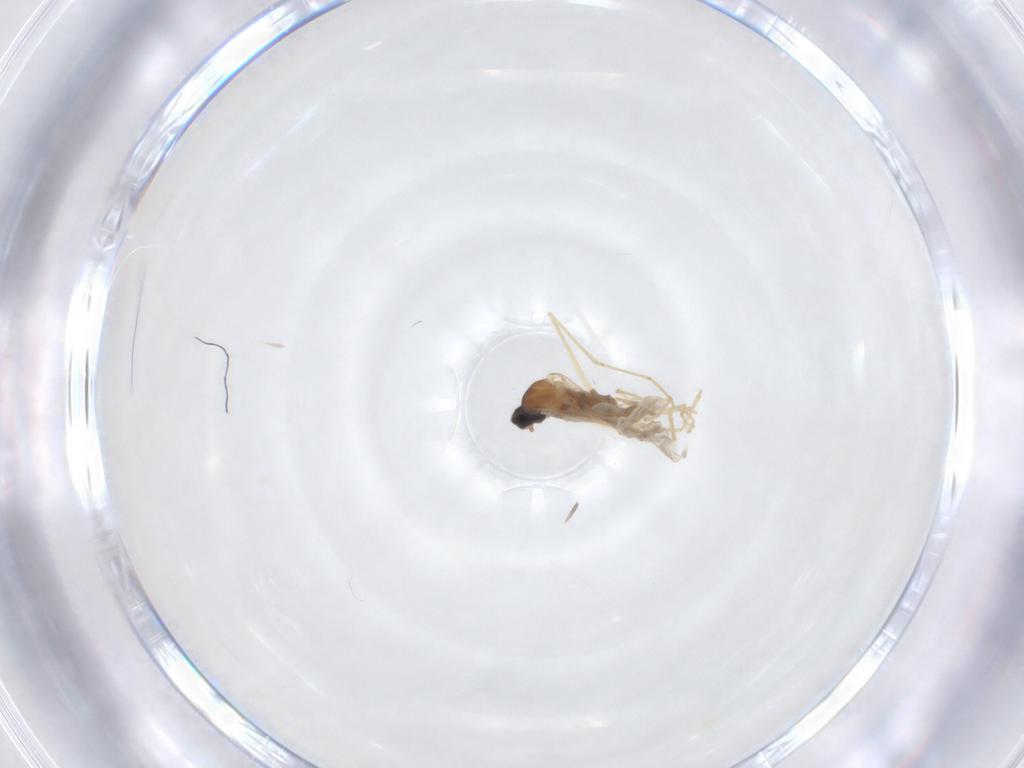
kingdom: Animalia
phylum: Arthropoda
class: Insecta
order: Diptera
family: Cecidomyiidae
